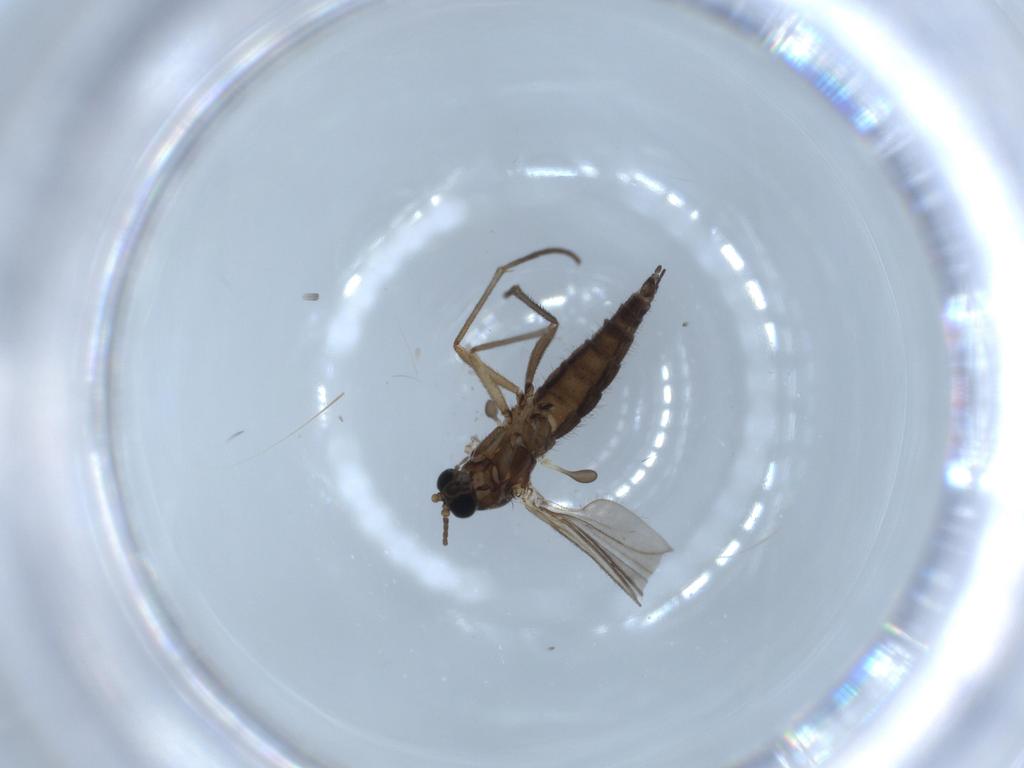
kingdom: Animalia
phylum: Arthropoda
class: Insecta
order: Diptera
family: Sciaridae
